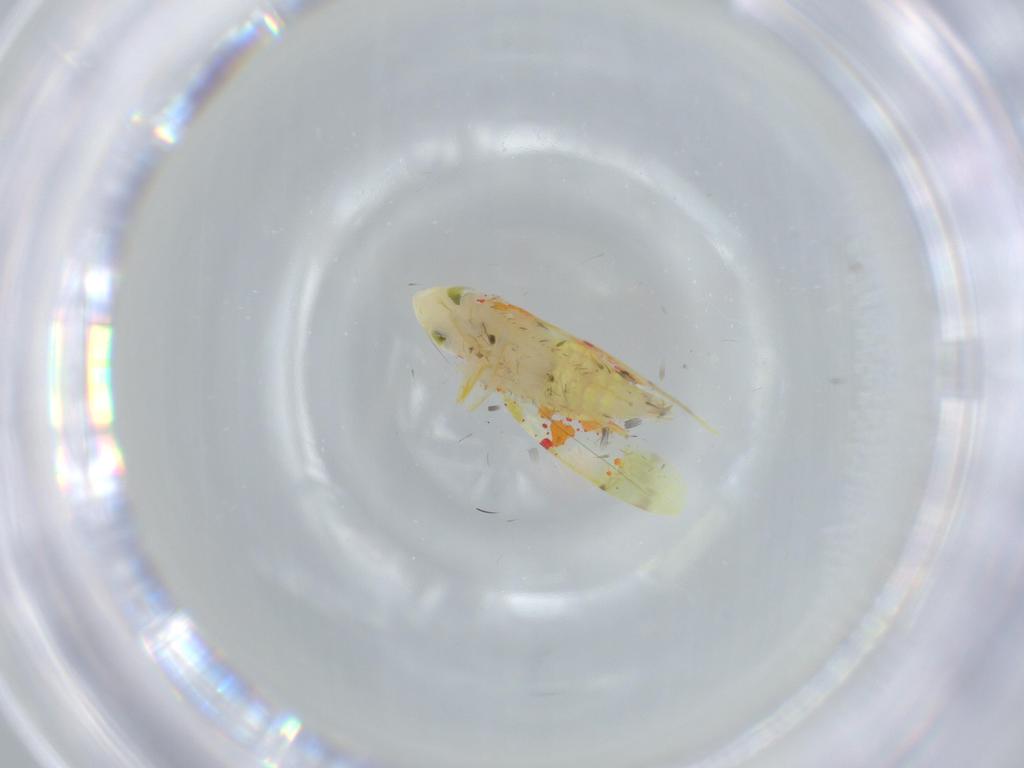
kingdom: Animalia
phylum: Arthropoda
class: Insecta
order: Hemiptera
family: Cicadellidae
